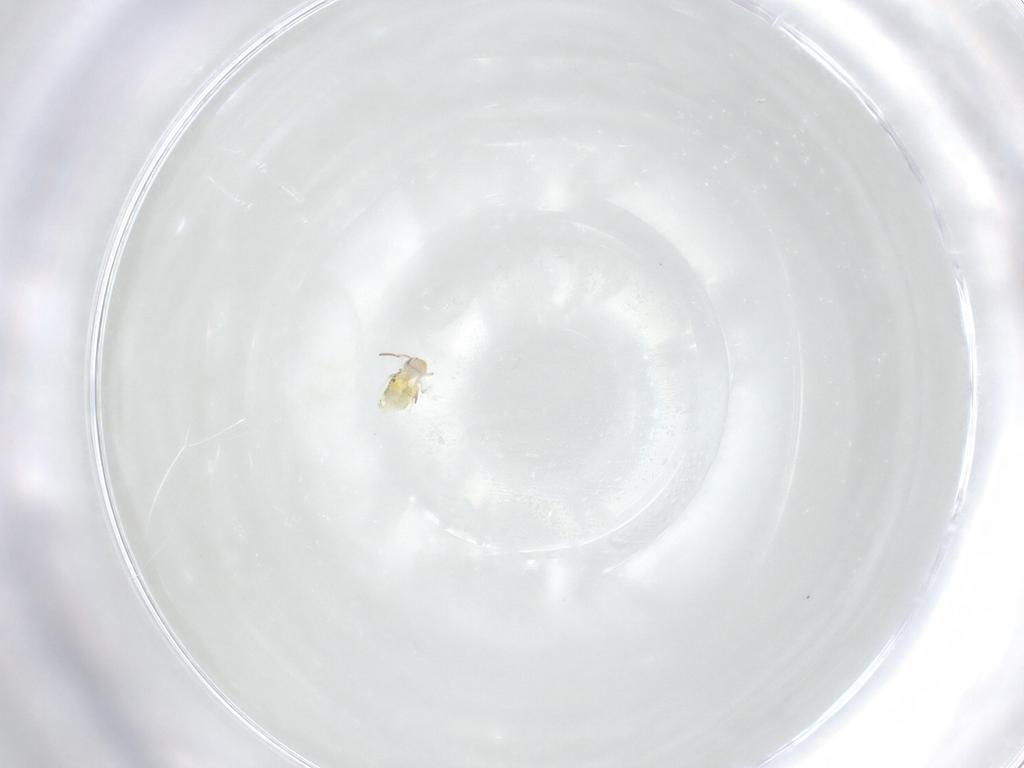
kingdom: Animalia
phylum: Arthropoda
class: Collembola
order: Symphypleona
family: Bourletiellidae
